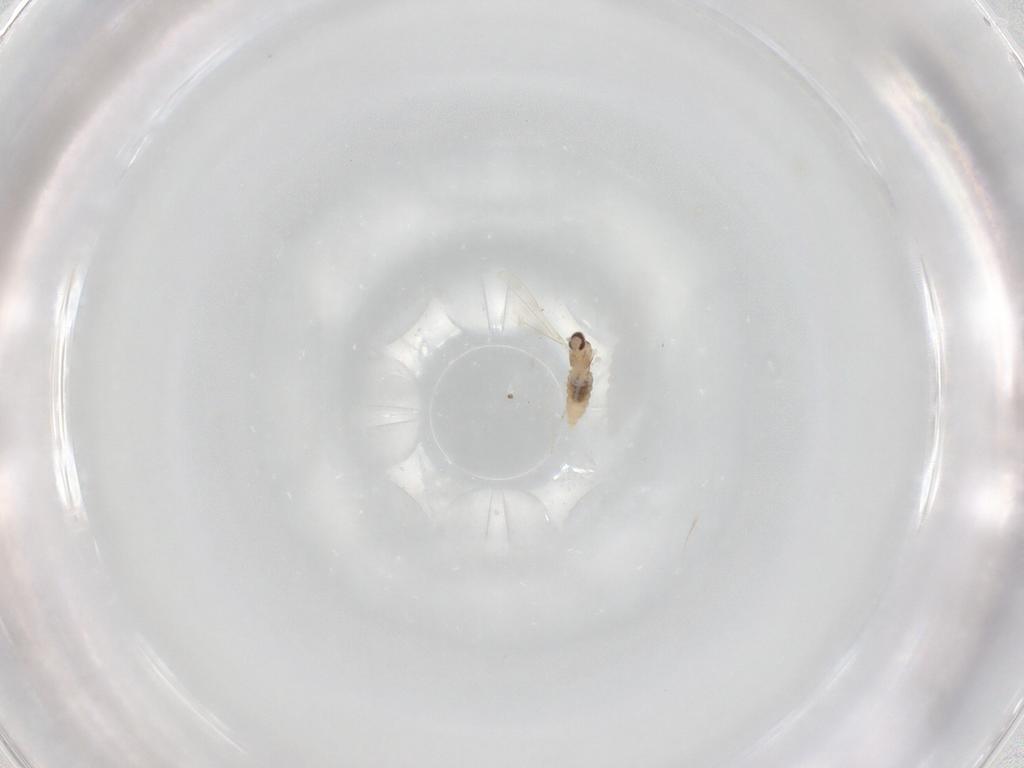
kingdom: Animalia
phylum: Arthropoda
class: Insecta
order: Diptera
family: Cecidomyiidae
